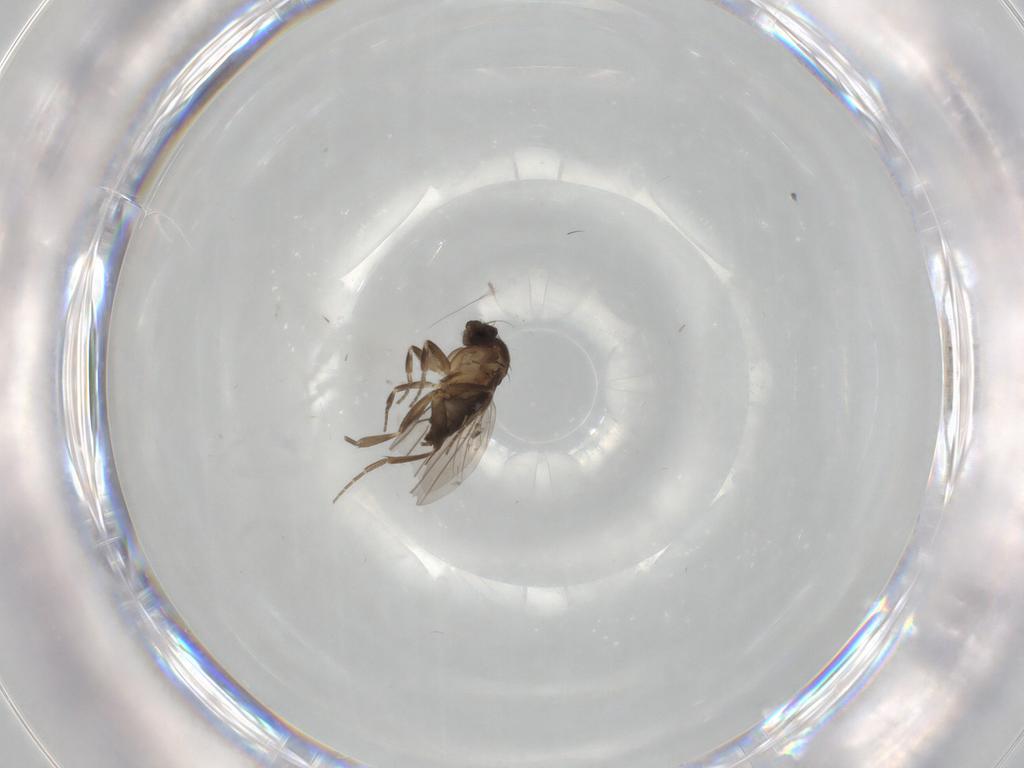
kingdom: Animalia
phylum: Arthropoda
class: Insecta
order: Diptera
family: Phoridae
